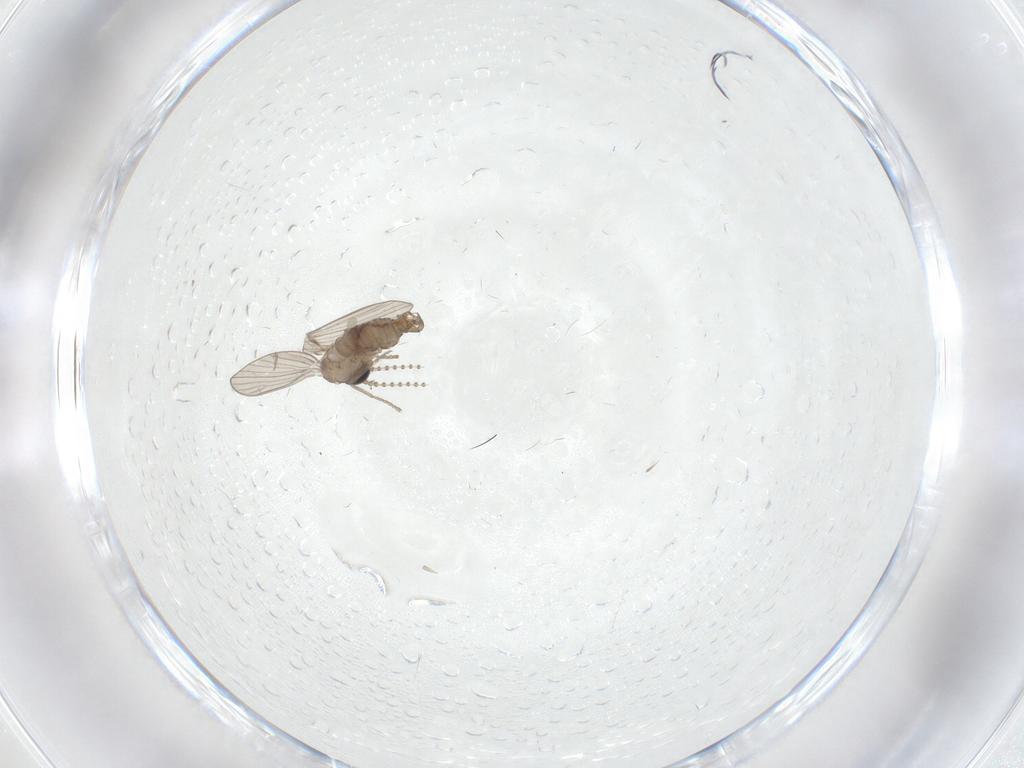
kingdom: Animalia
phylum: Arthropoda
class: Insecta
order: Diptera
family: Psychodidae
